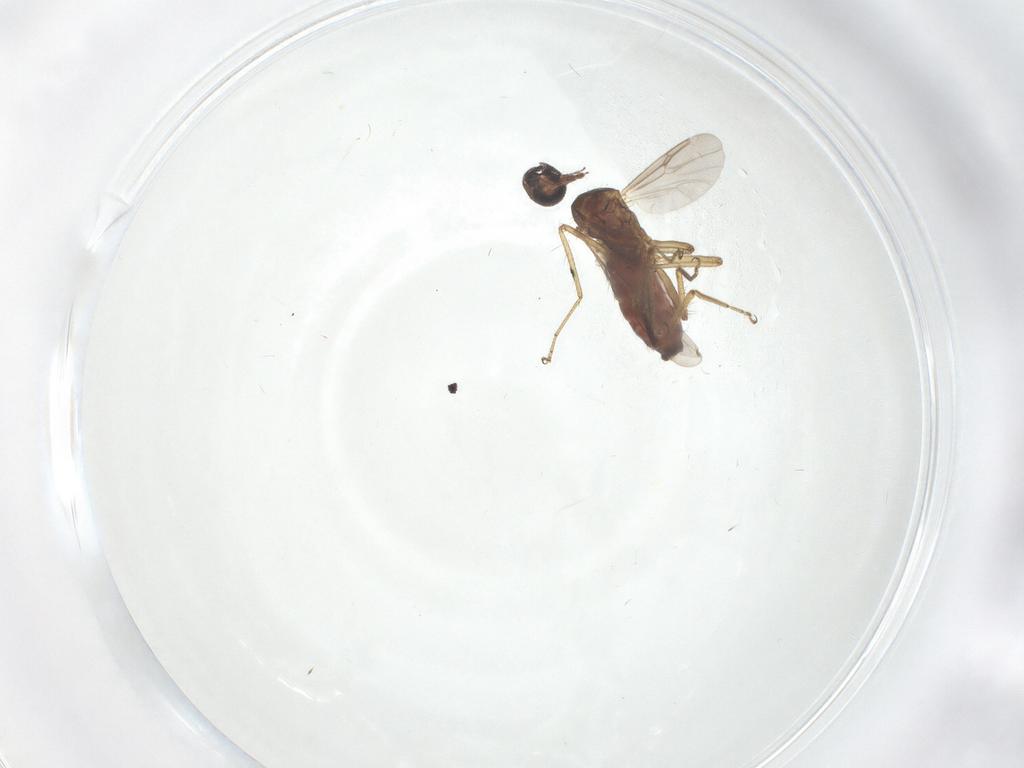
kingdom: Animalia
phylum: Arthropoda
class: Insecta
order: Diptera
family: Ceratopogonidae
